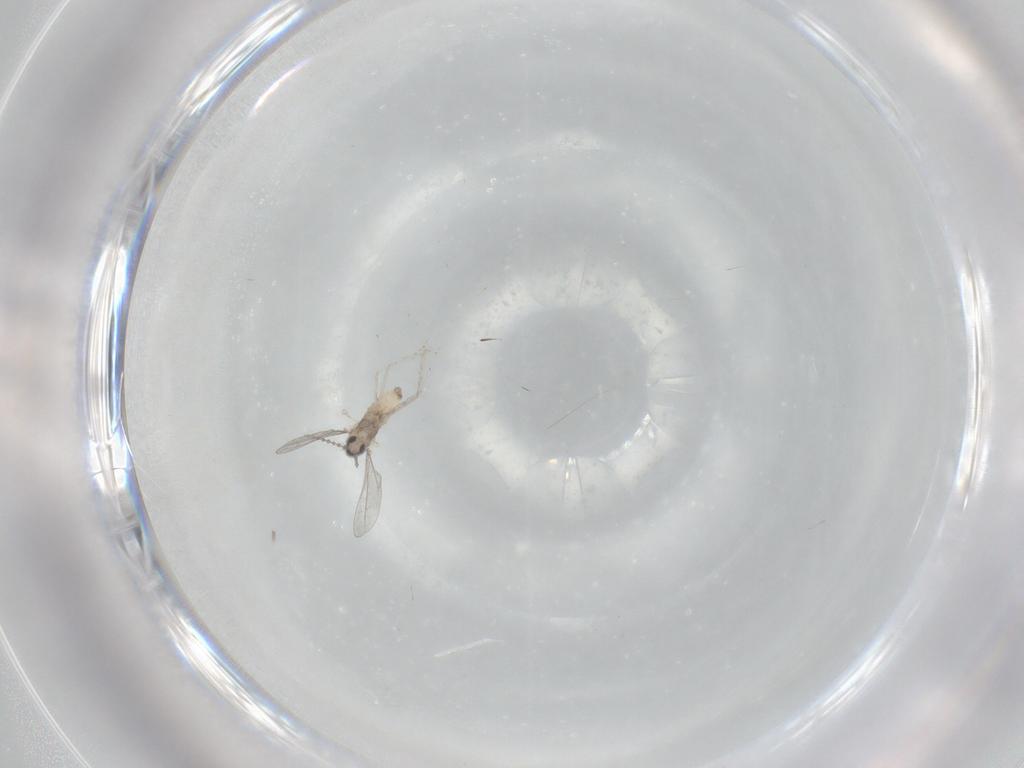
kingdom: Animalia
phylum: Arthropoda
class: Insecta
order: Diptera
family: Cecidomyiidae
